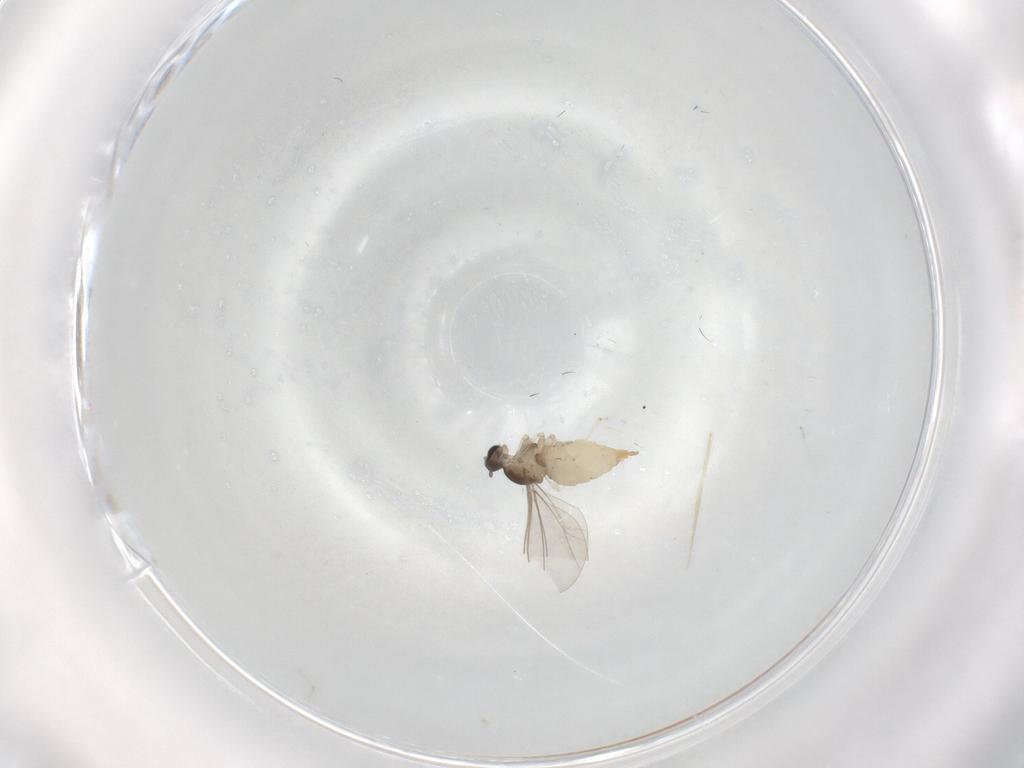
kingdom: Animalia
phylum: Arthropoda
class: Insecta
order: Diptera
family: Cecidomyiidae
